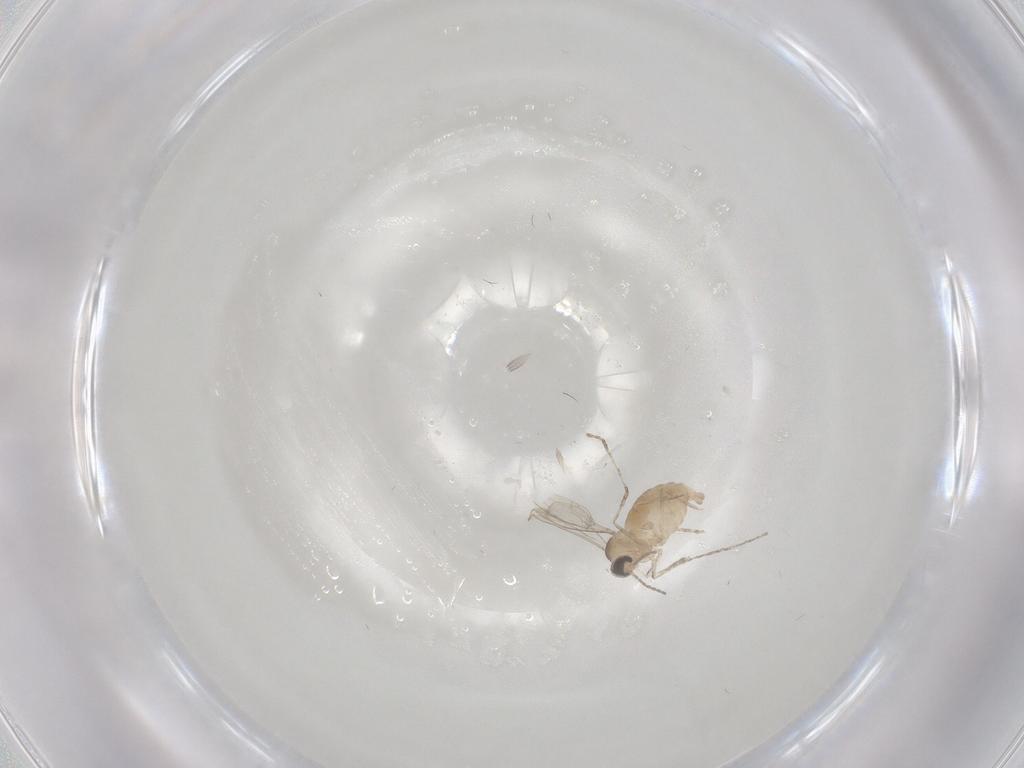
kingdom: Animalia
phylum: Arthropoda
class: Insecta
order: Diptera
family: Cecidomyiidae
